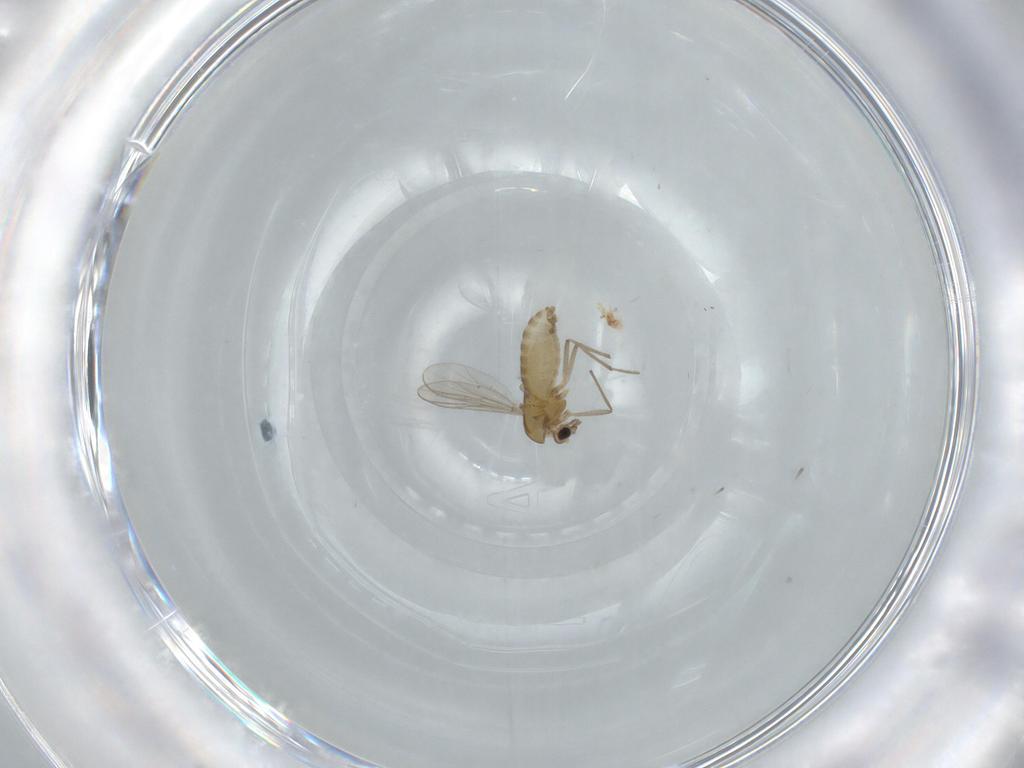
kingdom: Animalia
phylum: Arthropoda
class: Insecta
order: Diptera
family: Chironomidae
